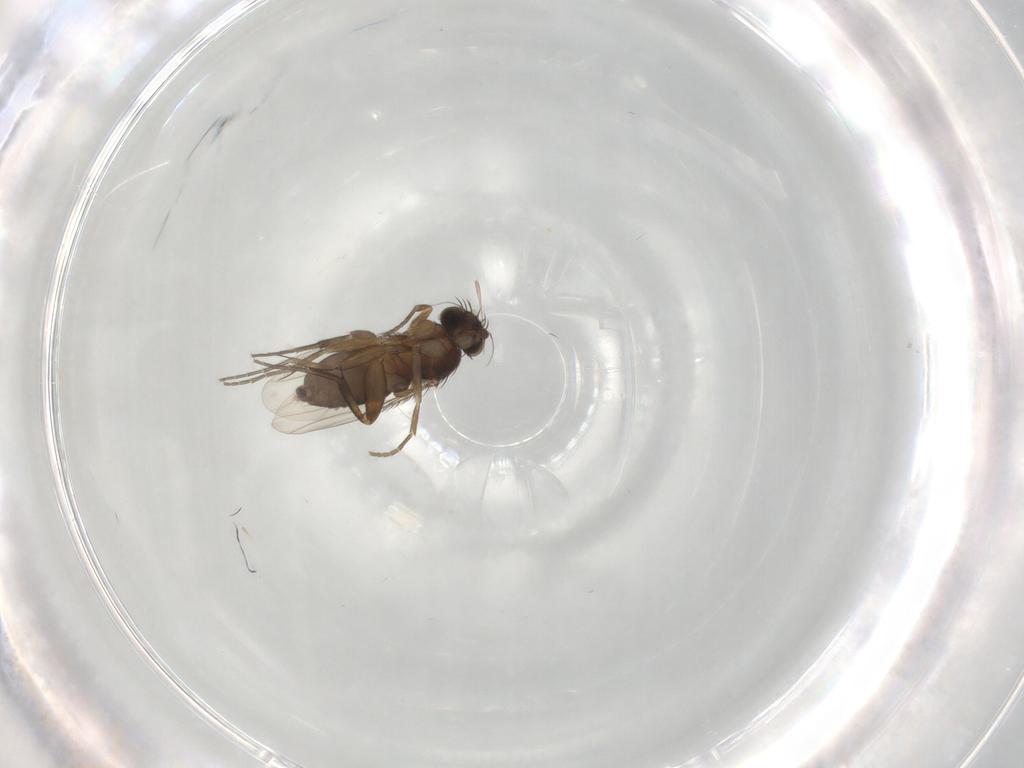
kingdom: Animalia
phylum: Arthropoda
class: Insecta
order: Diptera
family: Phoridae
